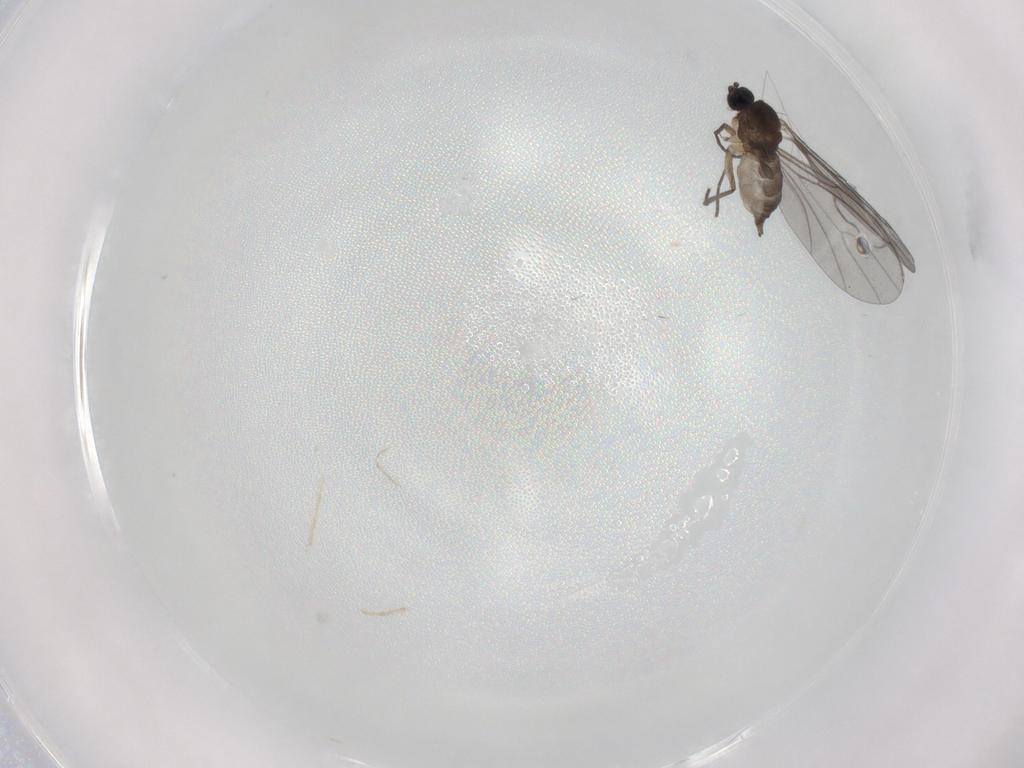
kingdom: Animalia
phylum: Arthropoda
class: Insecta
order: Diptera
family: Sciaridae
